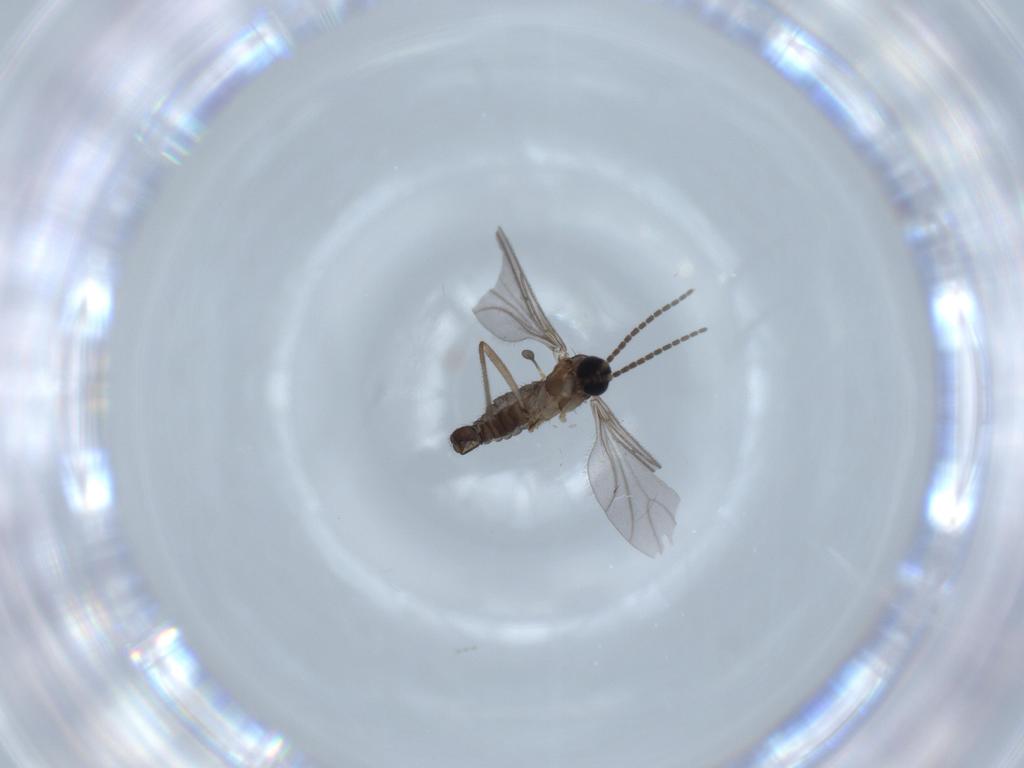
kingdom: Animalia
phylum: Arthropoda
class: Insecta
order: Diptera
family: Sciaridae
